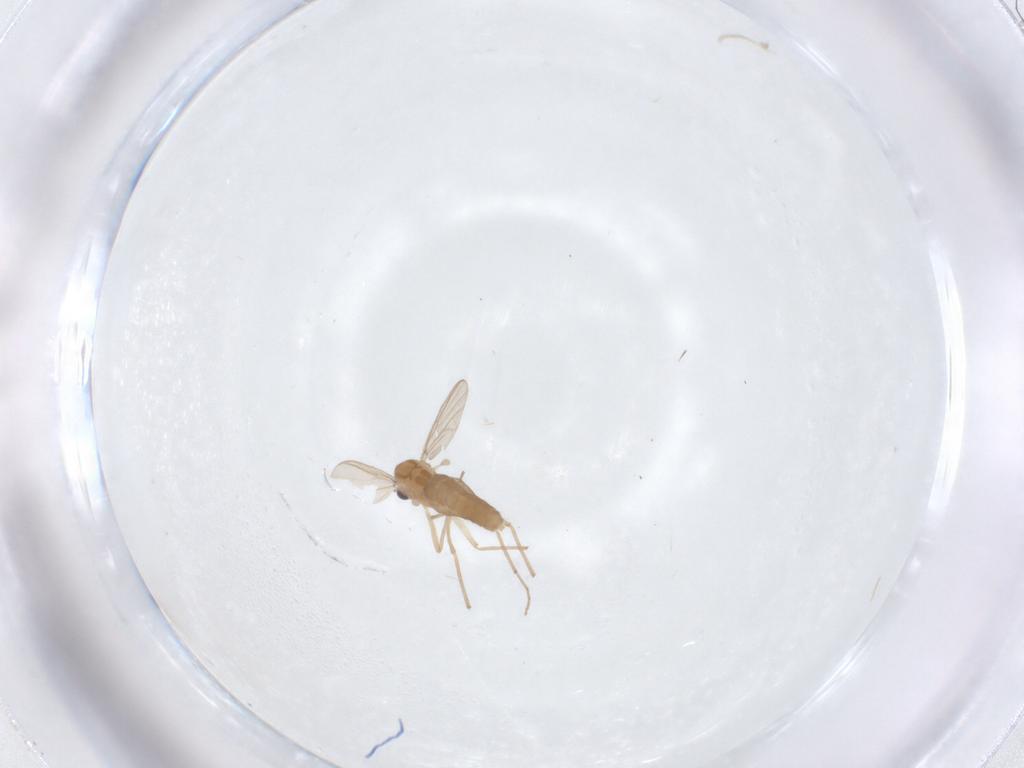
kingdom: Animalia
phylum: Arthropoda
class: Insecta
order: Diptera
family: Chironomidae
